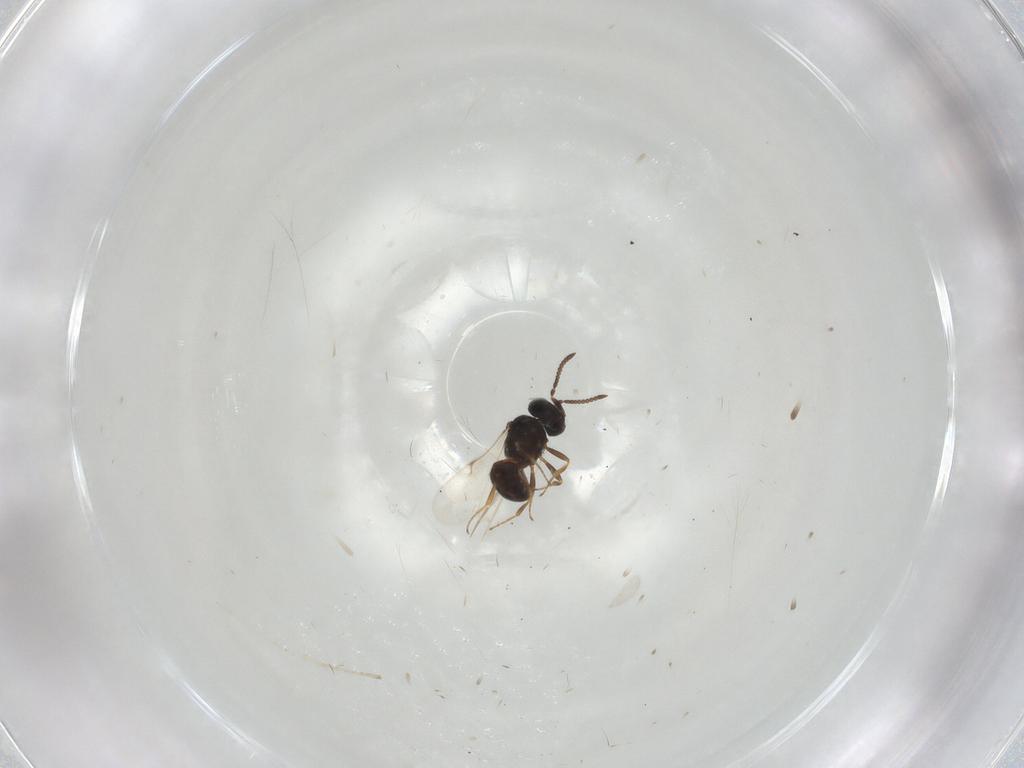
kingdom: Animalia
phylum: Arthropoda
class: Arachnida
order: Araneae
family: Pholcidae
